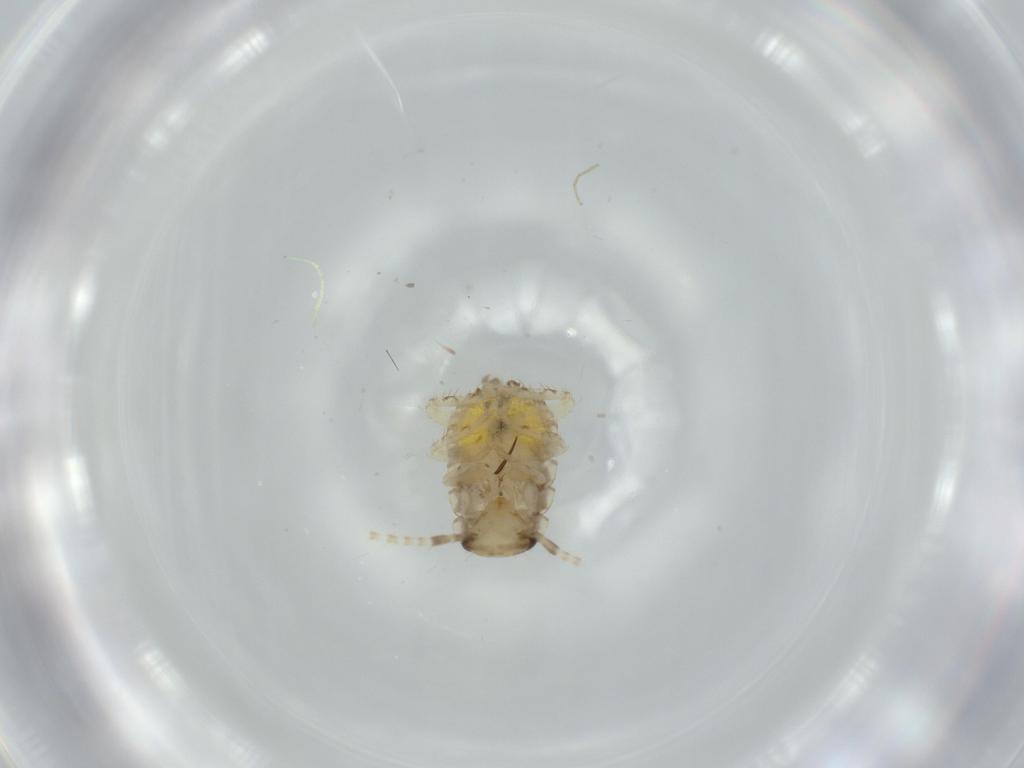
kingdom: Animalia
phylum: Arthropoda
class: Insecta
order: Blattodea
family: Ectobiidae
